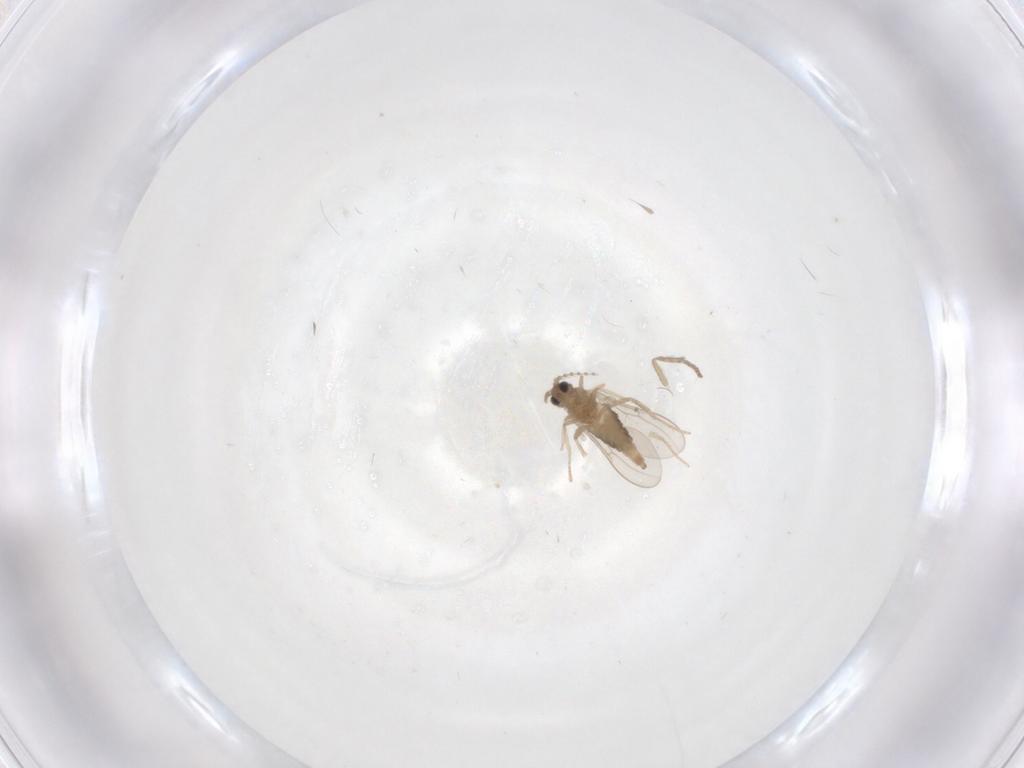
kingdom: Animalia
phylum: Arthropoda
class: Insecta
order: Diptera
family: Cecidomyiidae
